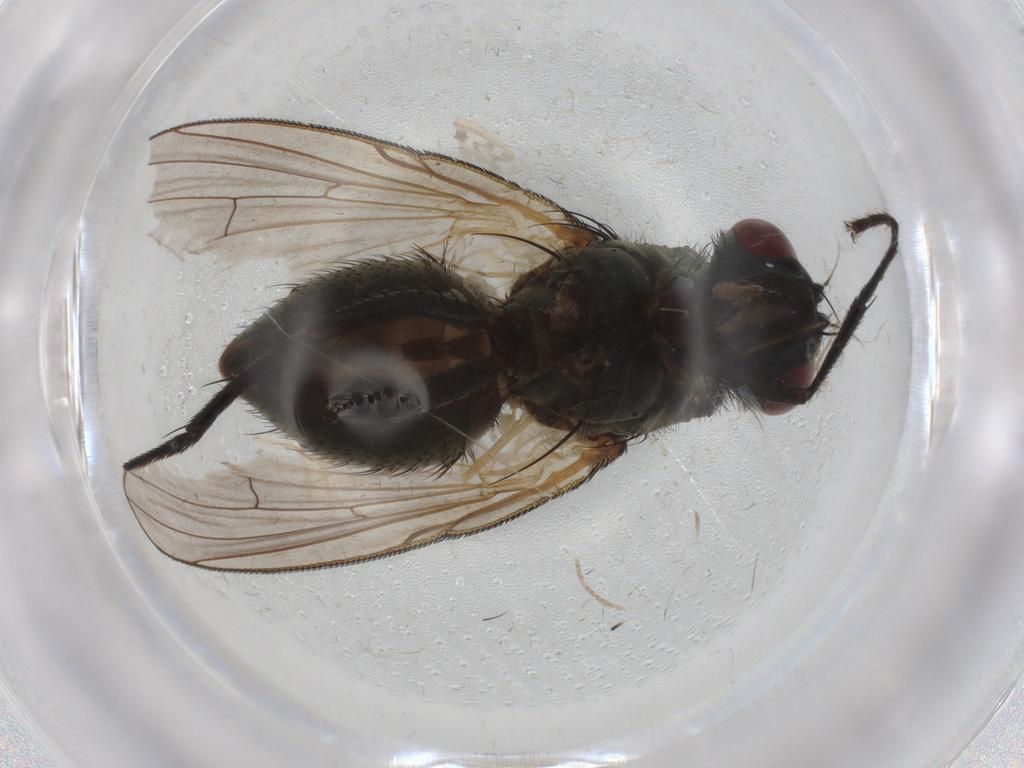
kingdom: Animalia
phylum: Arthropoda
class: Insecta
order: Diptera
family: Muscidae
